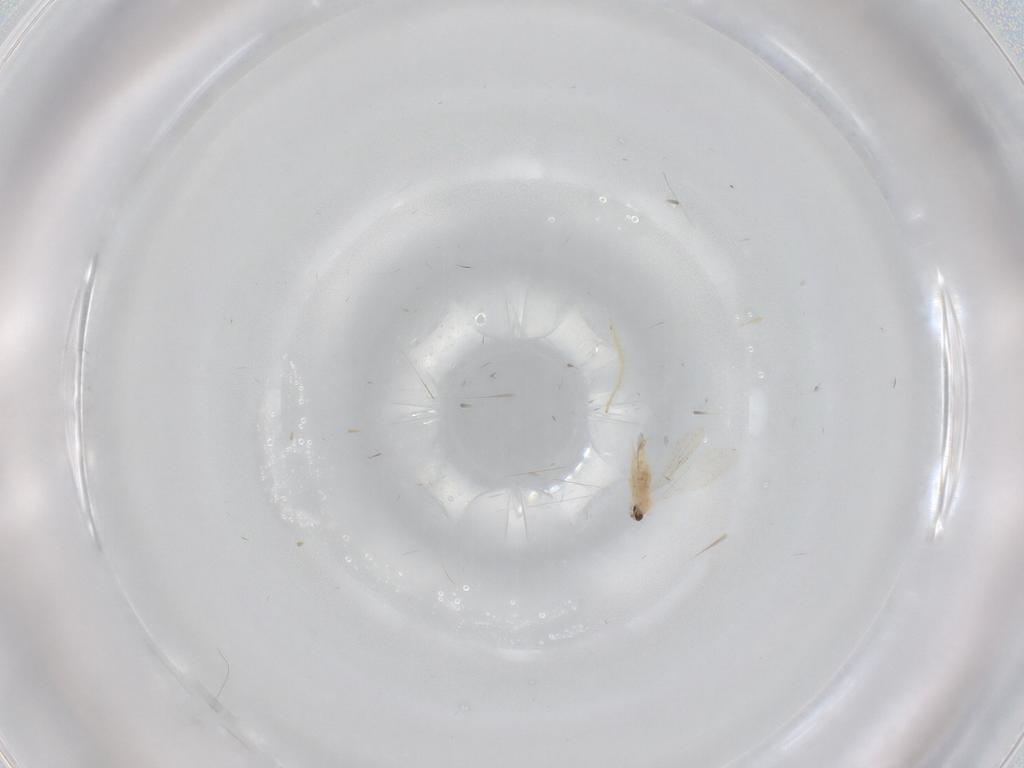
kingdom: Animalia
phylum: Arthropoda
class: Insecta
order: Diptera
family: Cecidomyiidae
